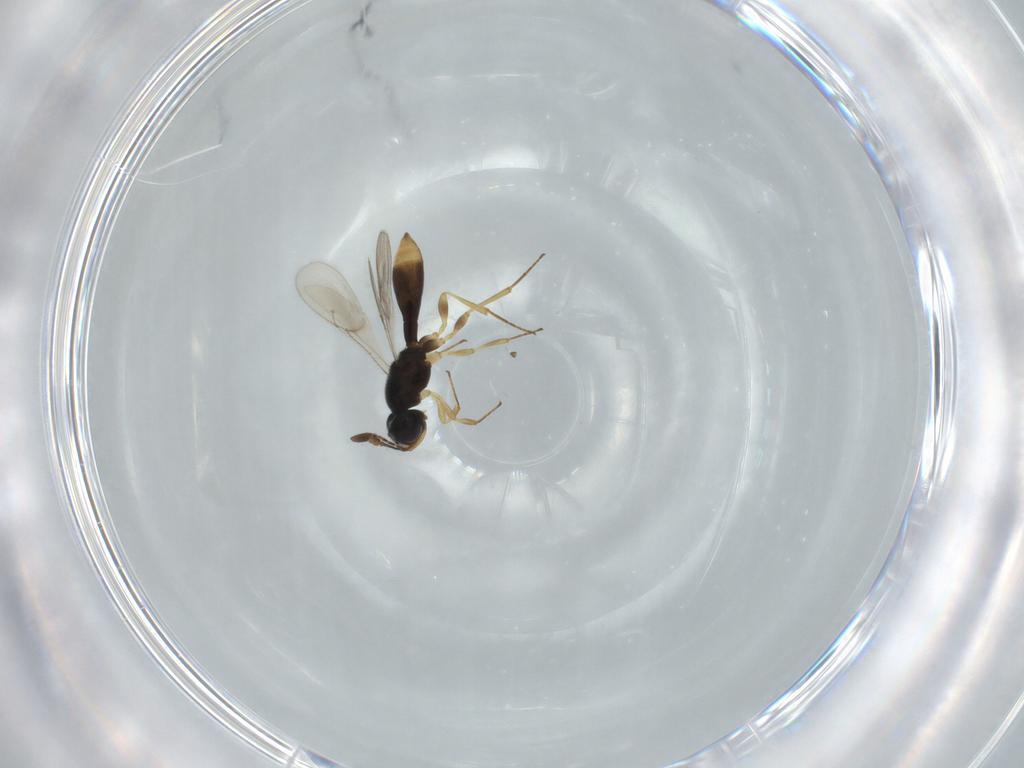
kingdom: Animalia
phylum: Arthropoda
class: Insecta
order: Hymenoptera
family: Scelionidae
